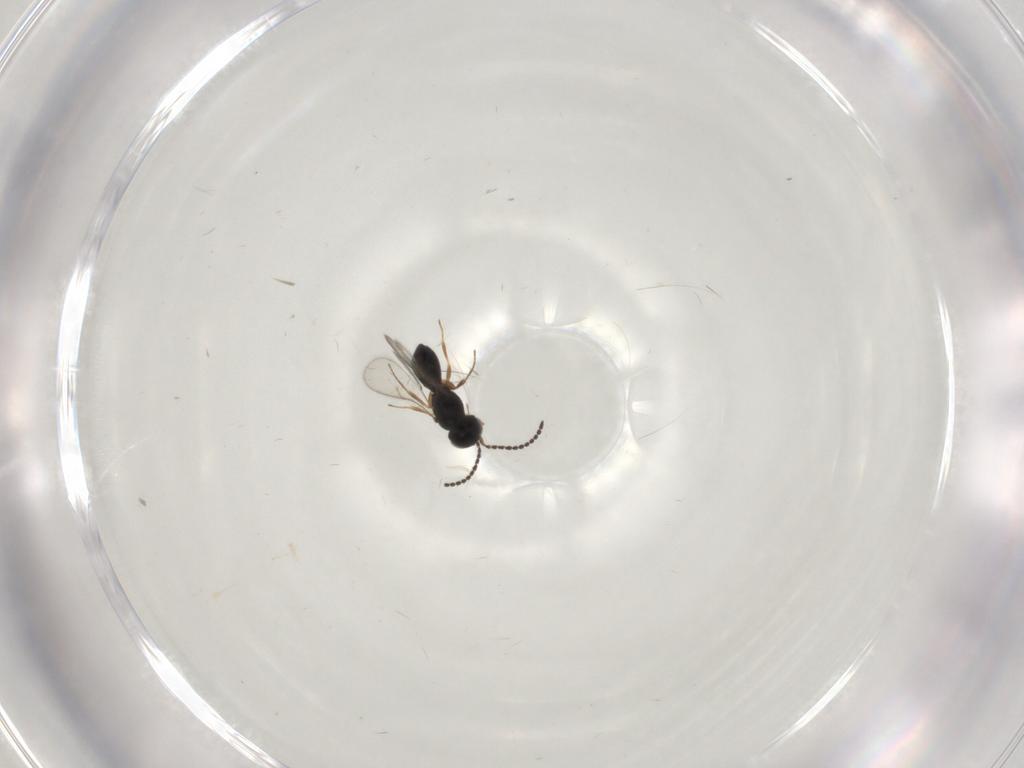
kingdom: Animalia
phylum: Arthropoda
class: Insecta
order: Hymenoptera
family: Scelionidae
